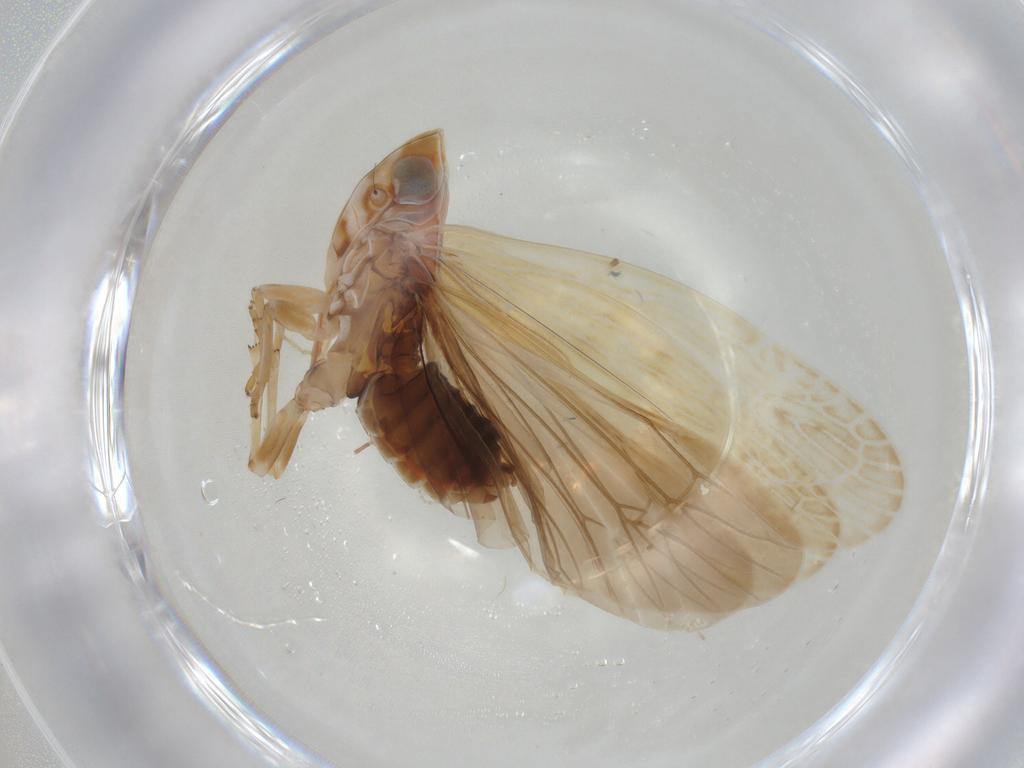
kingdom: Animalia
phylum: Arthropoda
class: Insecta
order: Hemiptera
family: Achilidae
